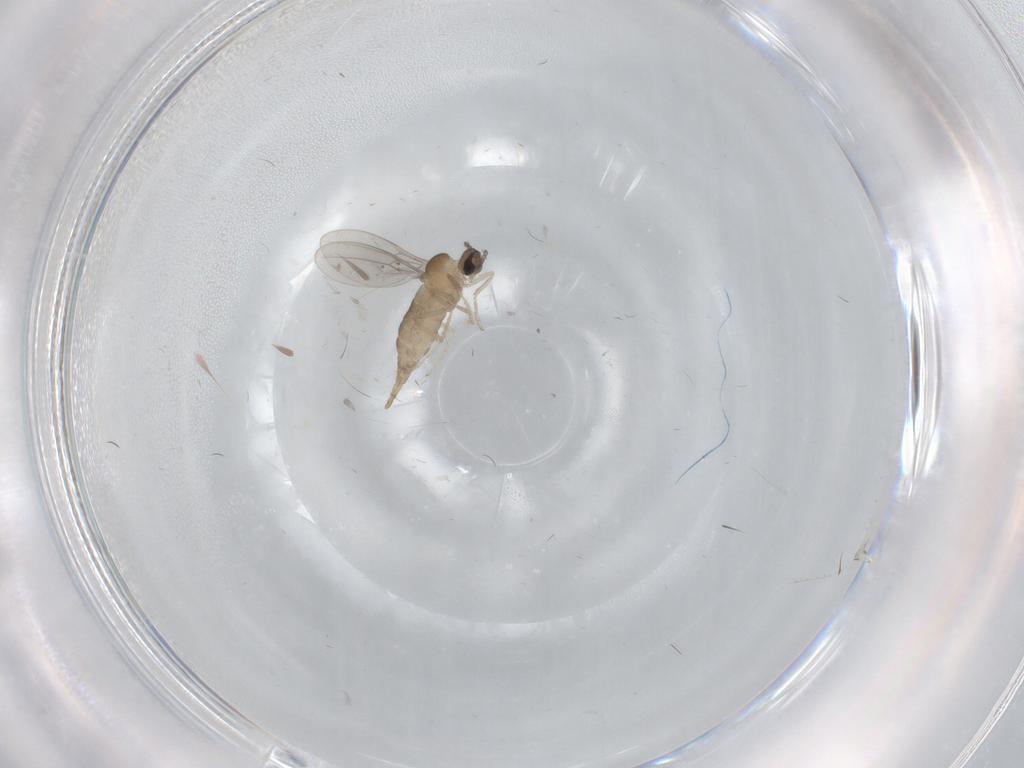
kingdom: Animalia
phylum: Arthropoda
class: Insecta
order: Diptera
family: Cecidomyiidae
